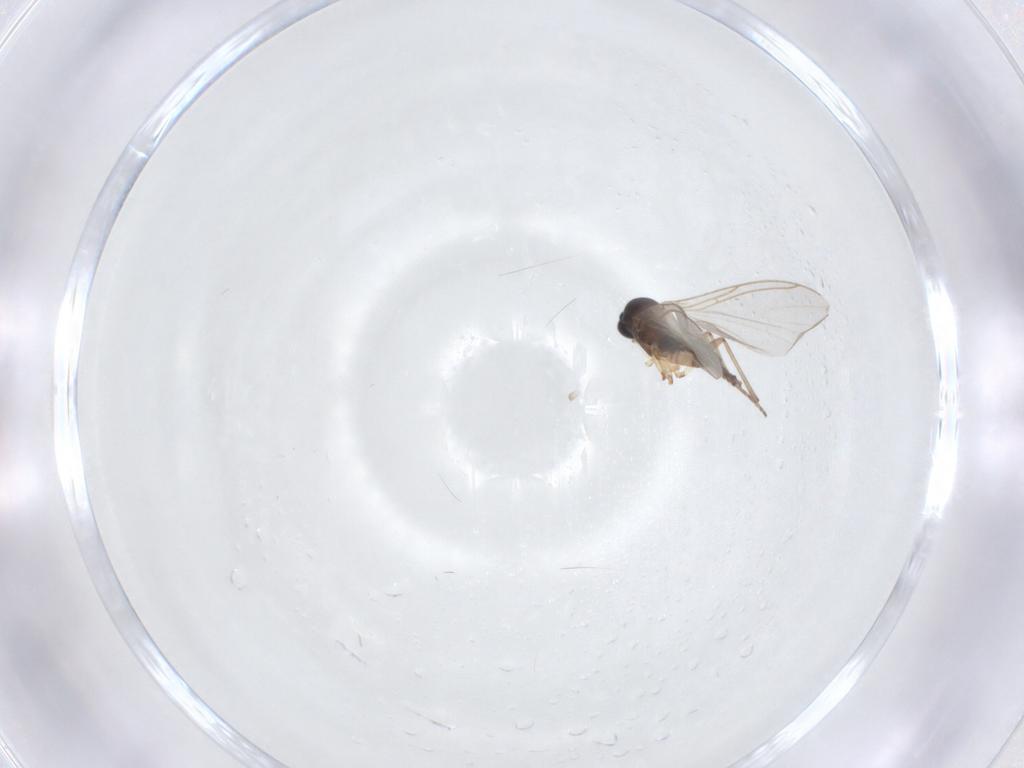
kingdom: Animalia
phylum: Arthropoda
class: Insecta
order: Diptera
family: Sciaridae
